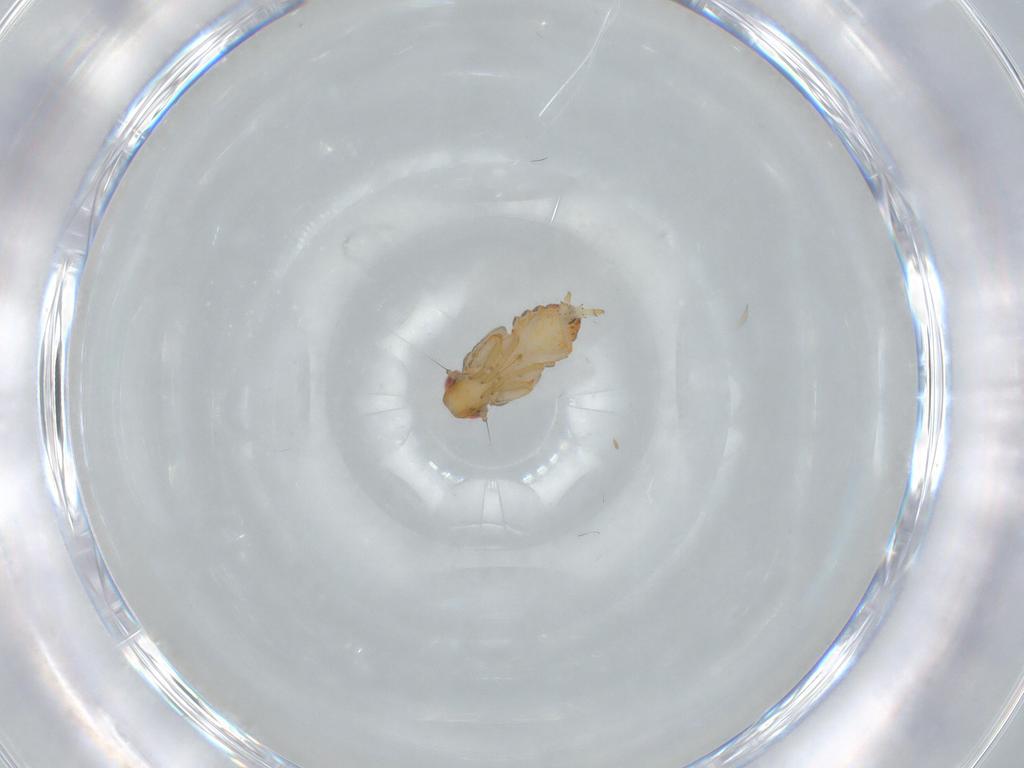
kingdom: Animalia
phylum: Arthropoda
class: Insecta
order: Hemiptera
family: Issidae
